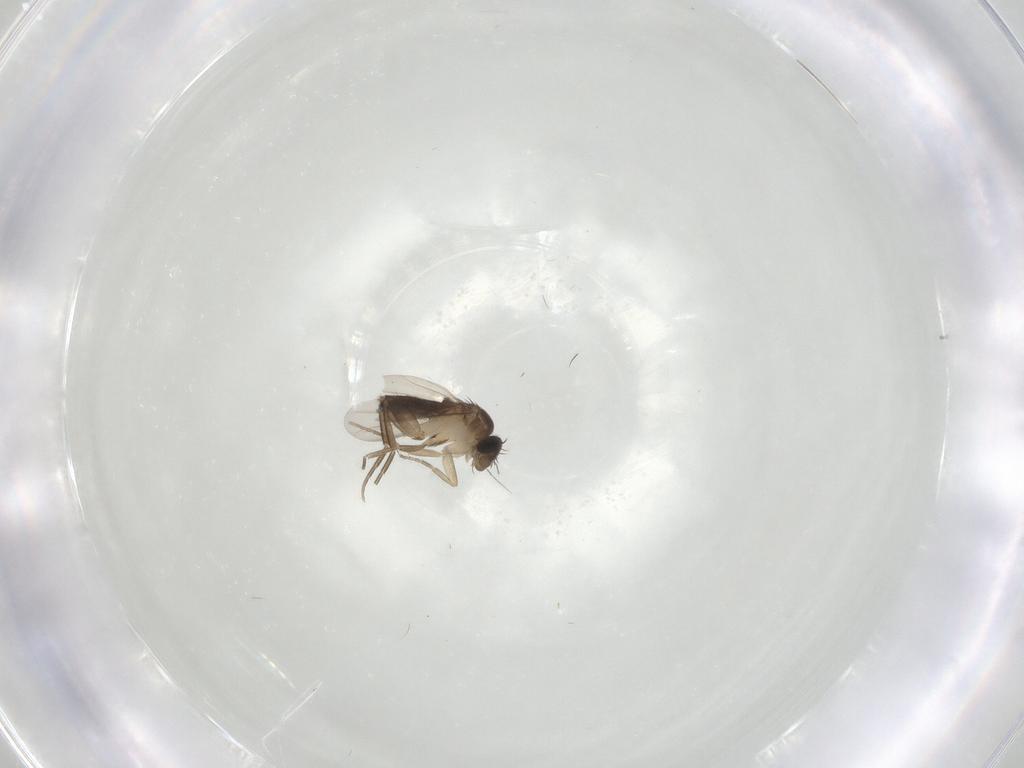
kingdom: Animalia
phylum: Arthropoda
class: Insecta
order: Diptera
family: Phoridae
